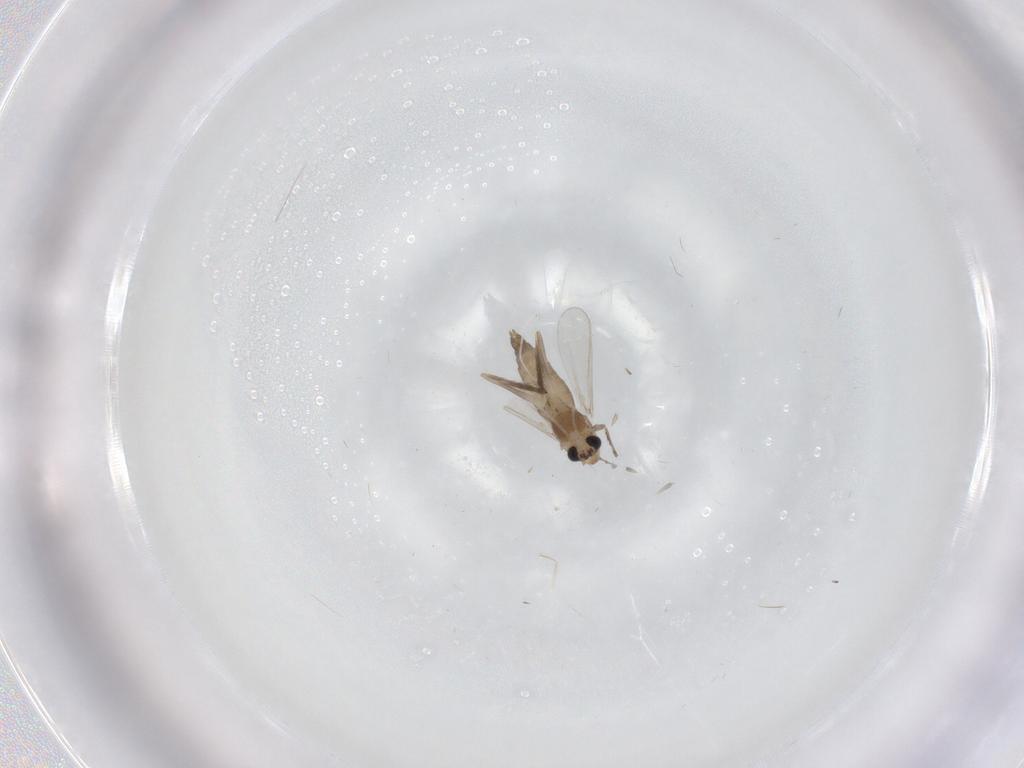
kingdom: Animalia
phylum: Arthropoda
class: Insecta
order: Diptera
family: Chironomidae
